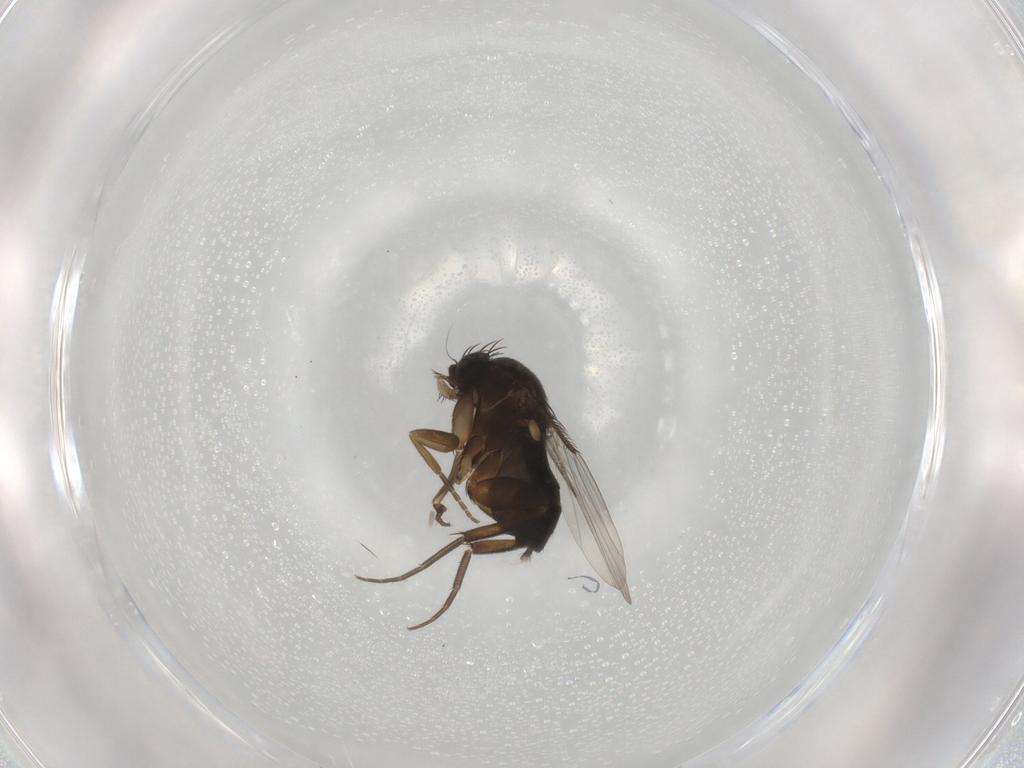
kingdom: Animalia
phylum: Arthropoda
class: Insecta
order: Diptera
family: Phoridae
